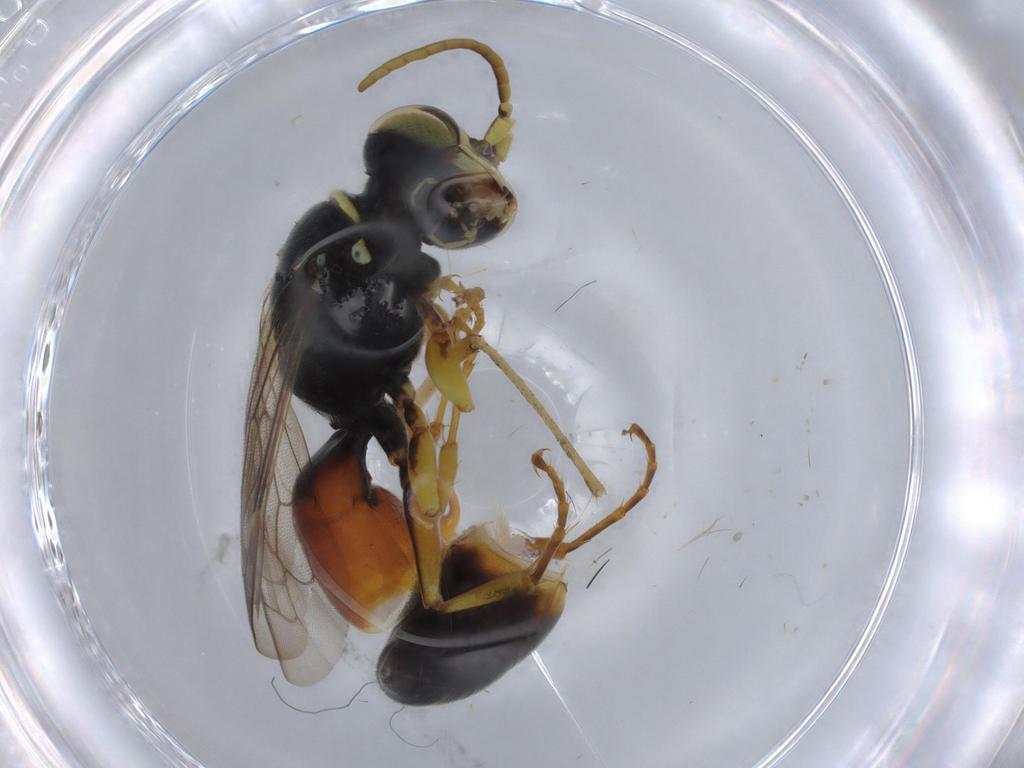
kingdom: Animalia
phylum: Arthropoda
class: Insecta
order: Hymenoptera
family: Bembicidae
